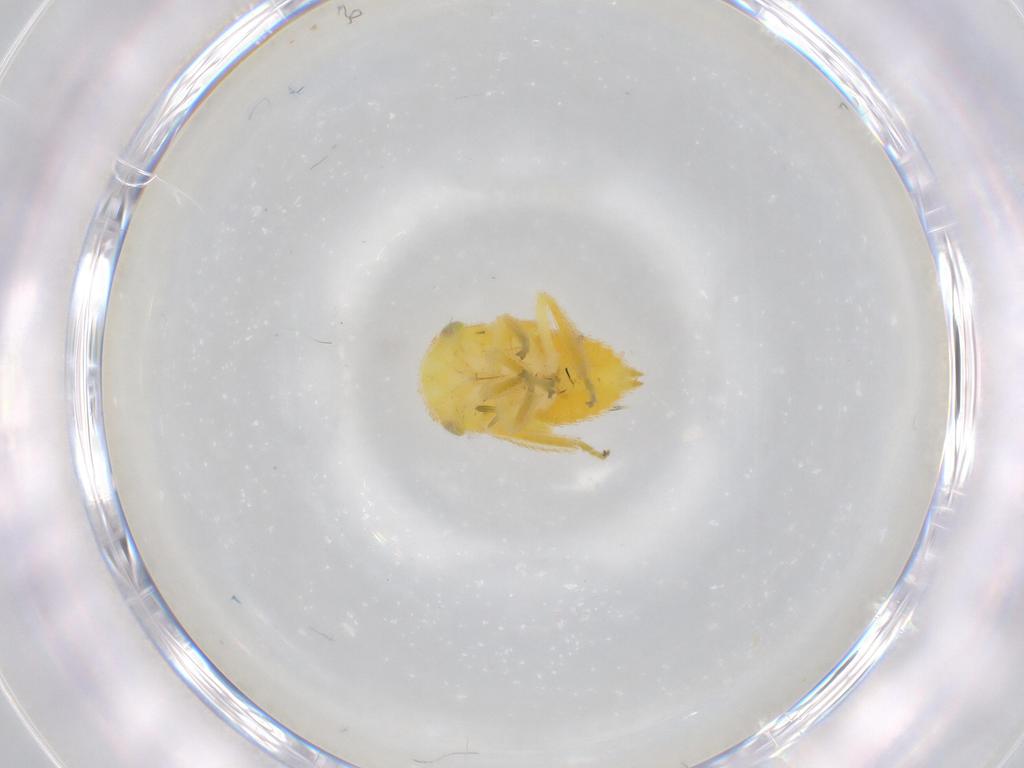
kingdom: Animalia
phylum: Arthropoda
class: Insecta
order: Hemiptera
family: Cicadellidae
